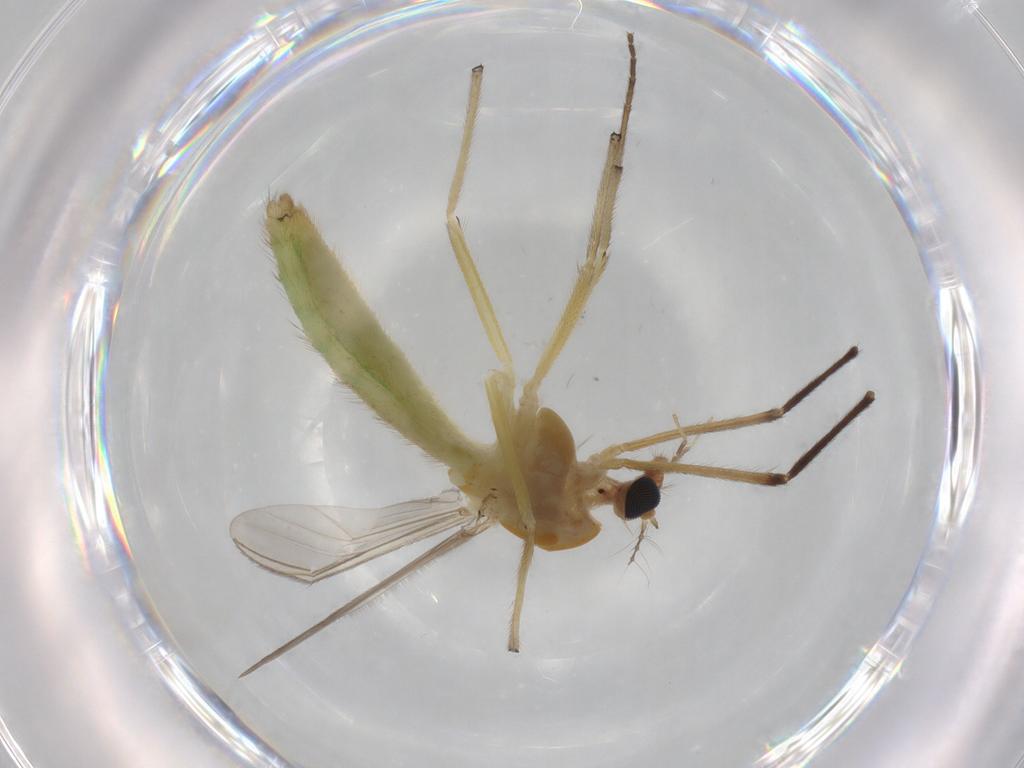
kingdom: Animalia
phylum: Arthropoda
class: Insecta
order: Diptera
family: Chironomidae
